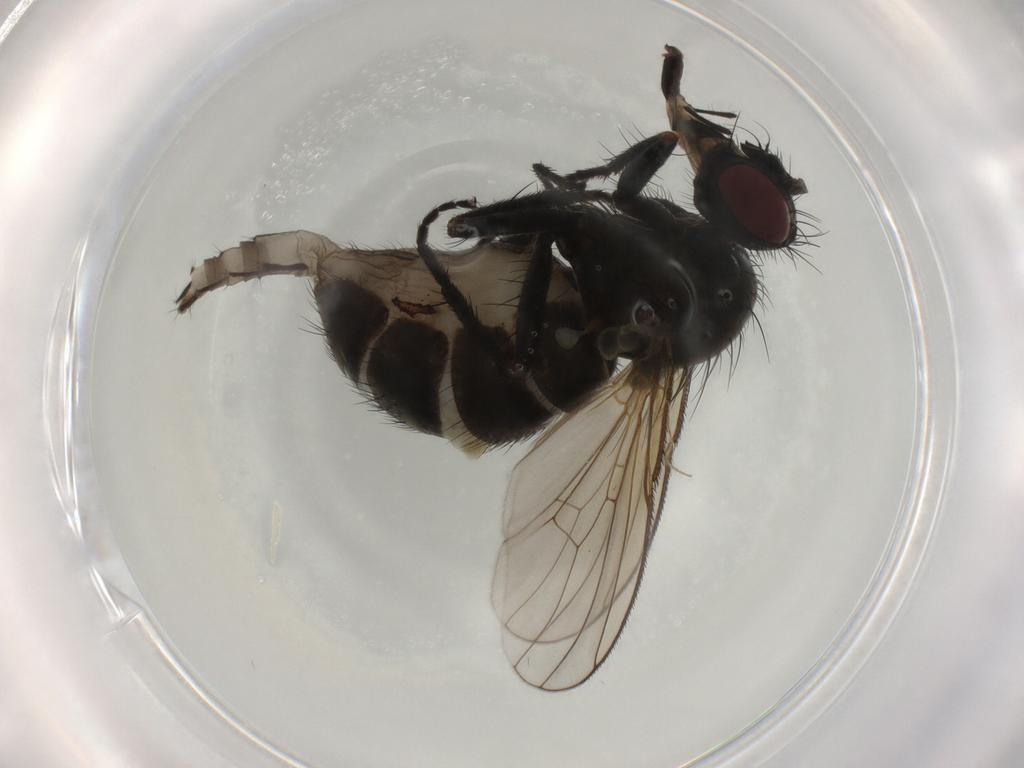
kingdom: Animalia
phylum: Arthropoda
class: Insecta
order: Diptera
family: Muscidae
